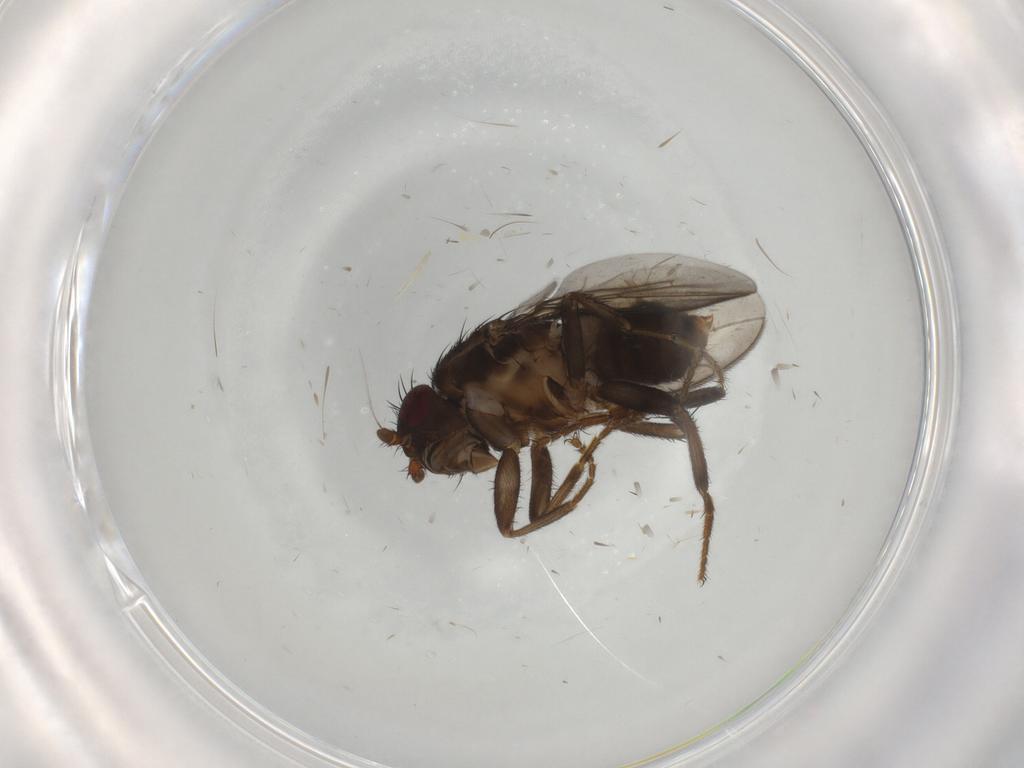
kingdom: Animalia
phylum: Arthropoda
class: Insecta
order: Diptera
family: Sphaeroceridae
